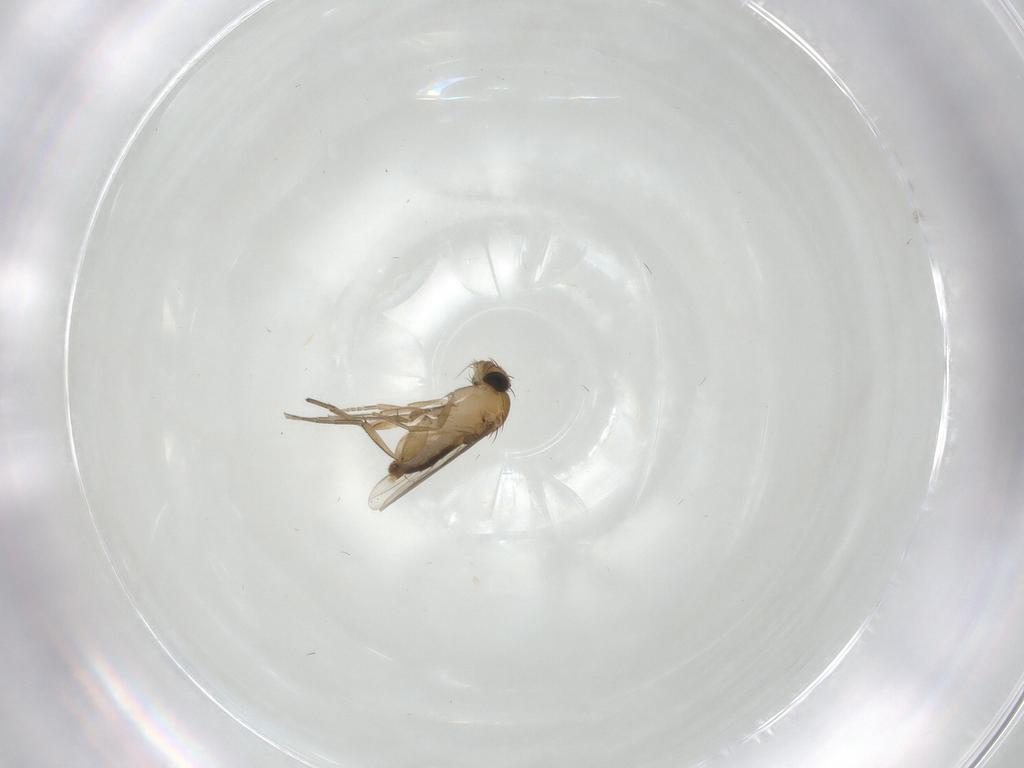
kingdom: Animalia
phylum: Arthropoda
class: Insecta
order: Diptera
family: Phoridae
